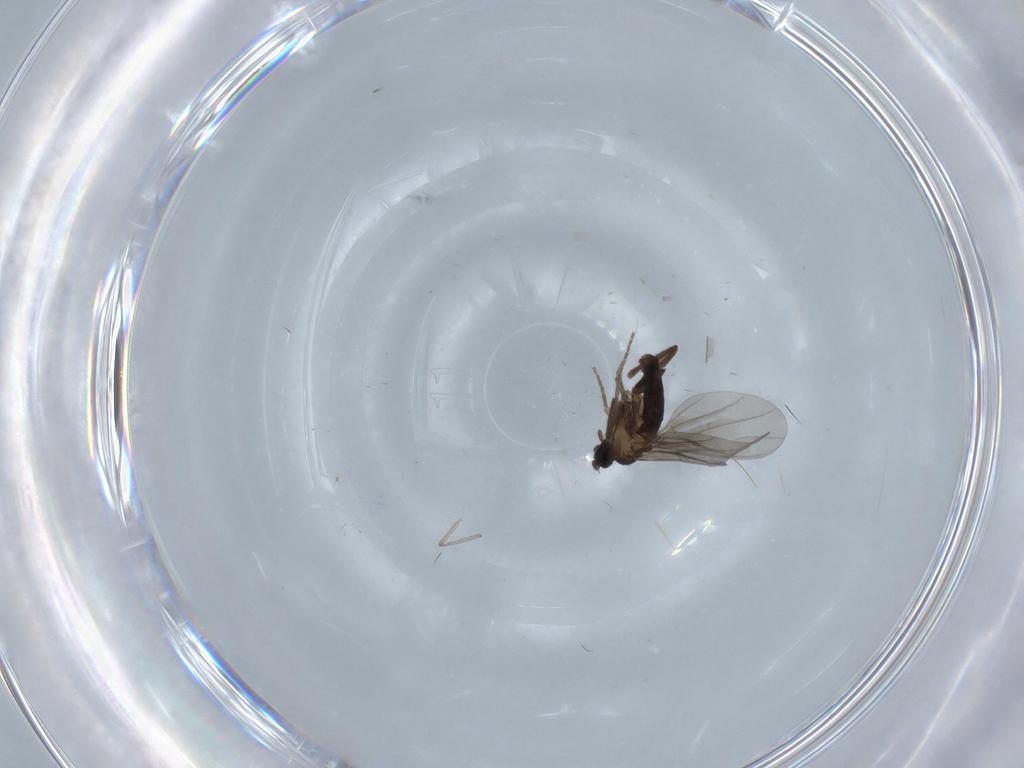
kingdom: Animalia
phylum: Arthropoda
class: Insecta
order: Diptera
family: Phoridae
